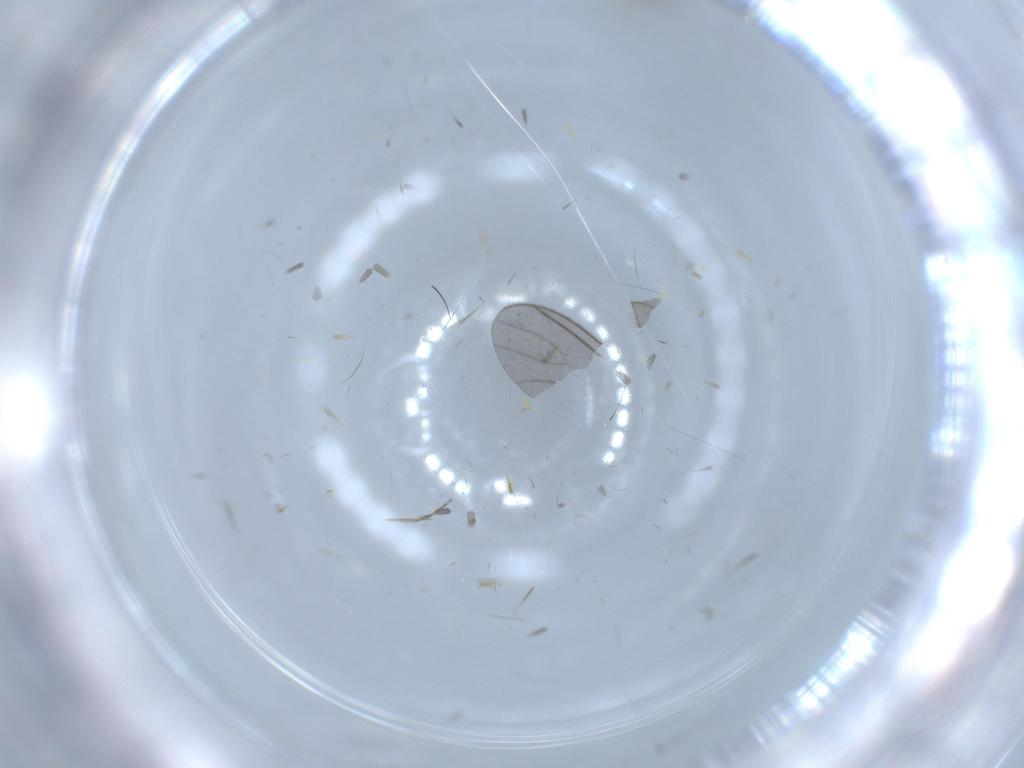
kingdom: Animalia
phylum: Arthropoda
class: Insecta
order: Diptera
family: Chironomidae
